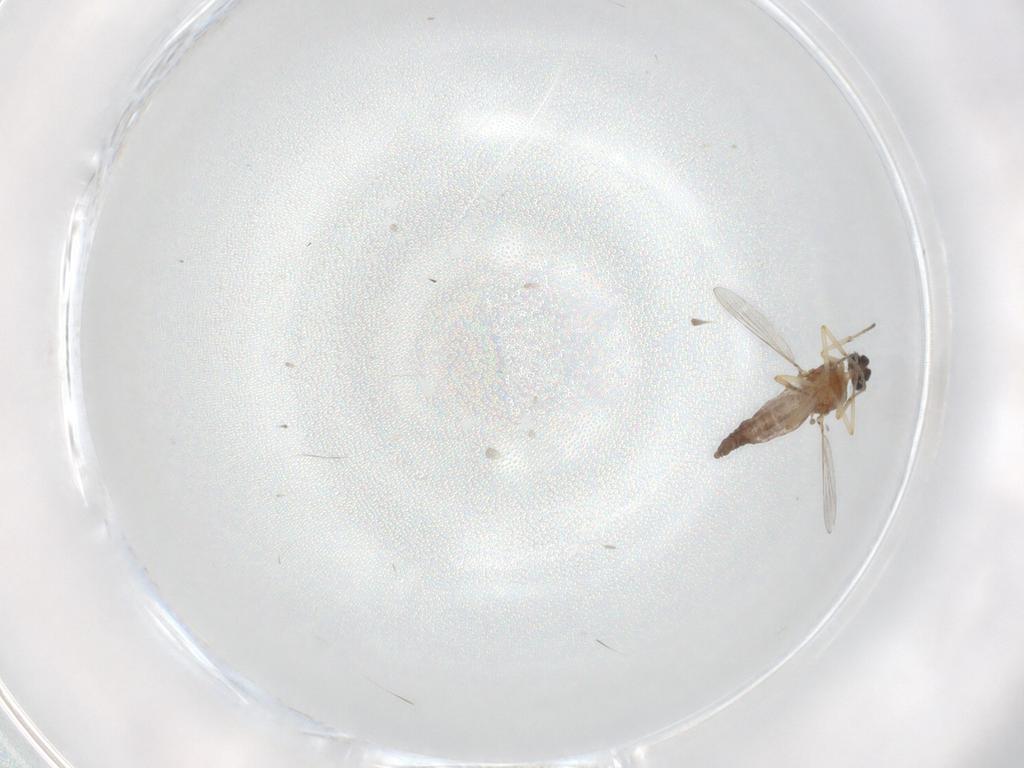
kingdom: Animalia
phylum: Arthropoda
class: Insecta
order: Diptera
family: Ceratopogonidae
